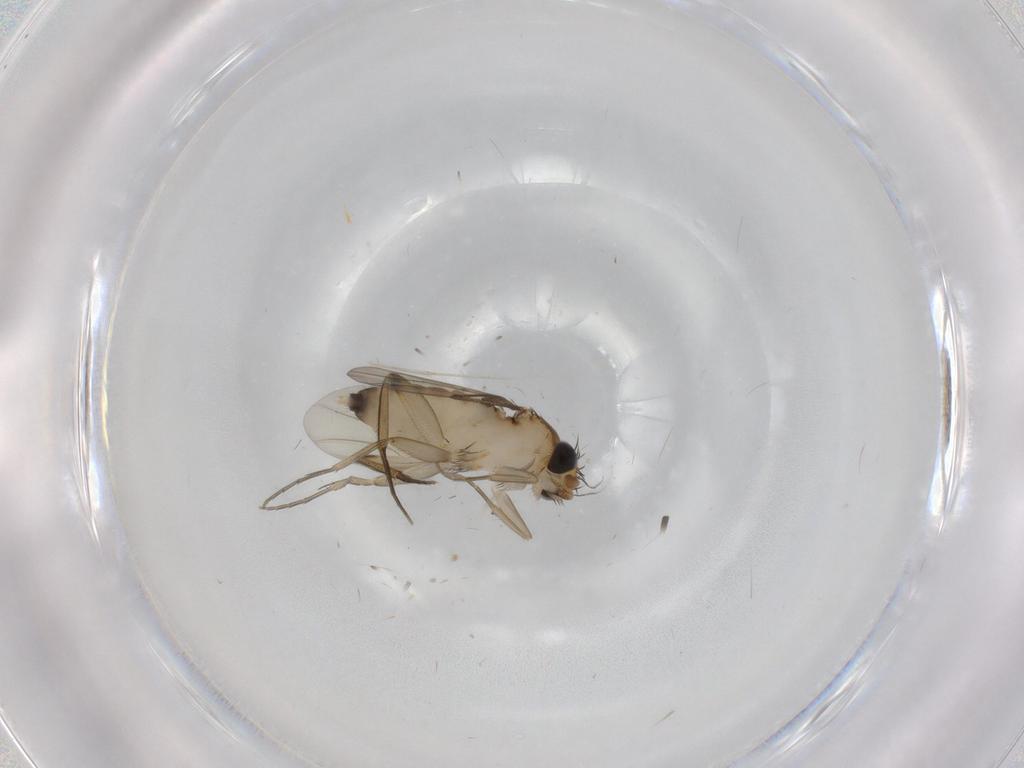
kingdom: Animalia
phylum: Arthropoda
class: Insecta
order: Diptera
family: Phoridae
